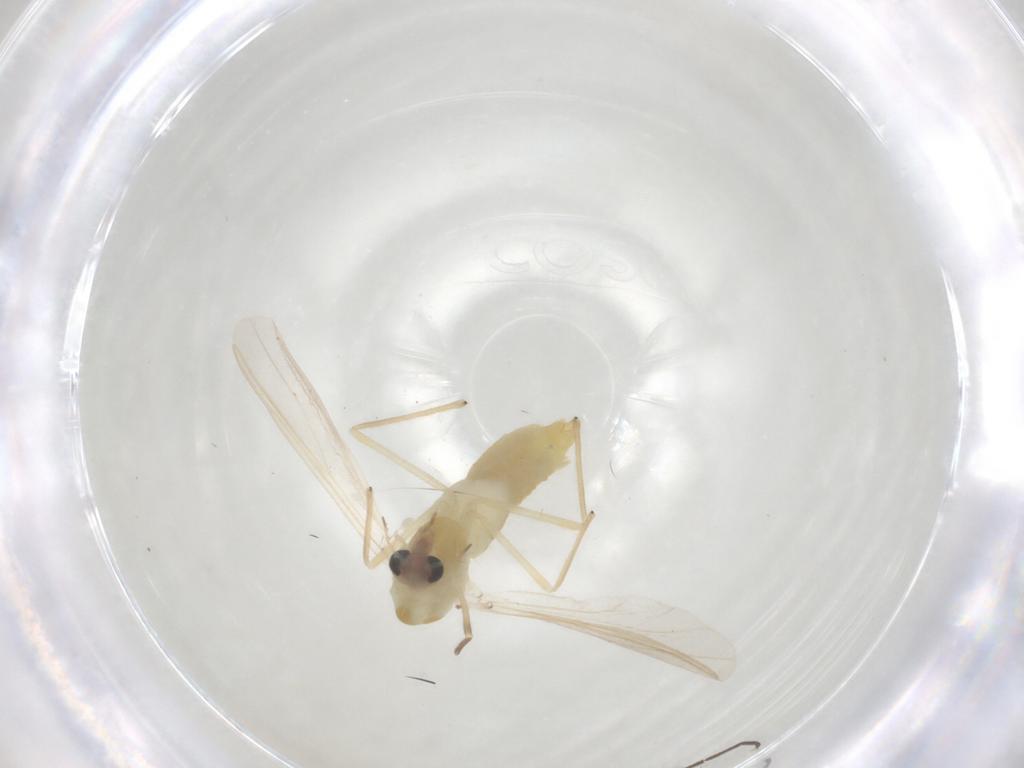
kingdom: Animalia
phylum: Arthropoda
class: Insecta
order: Diptera
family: Chironomidae
